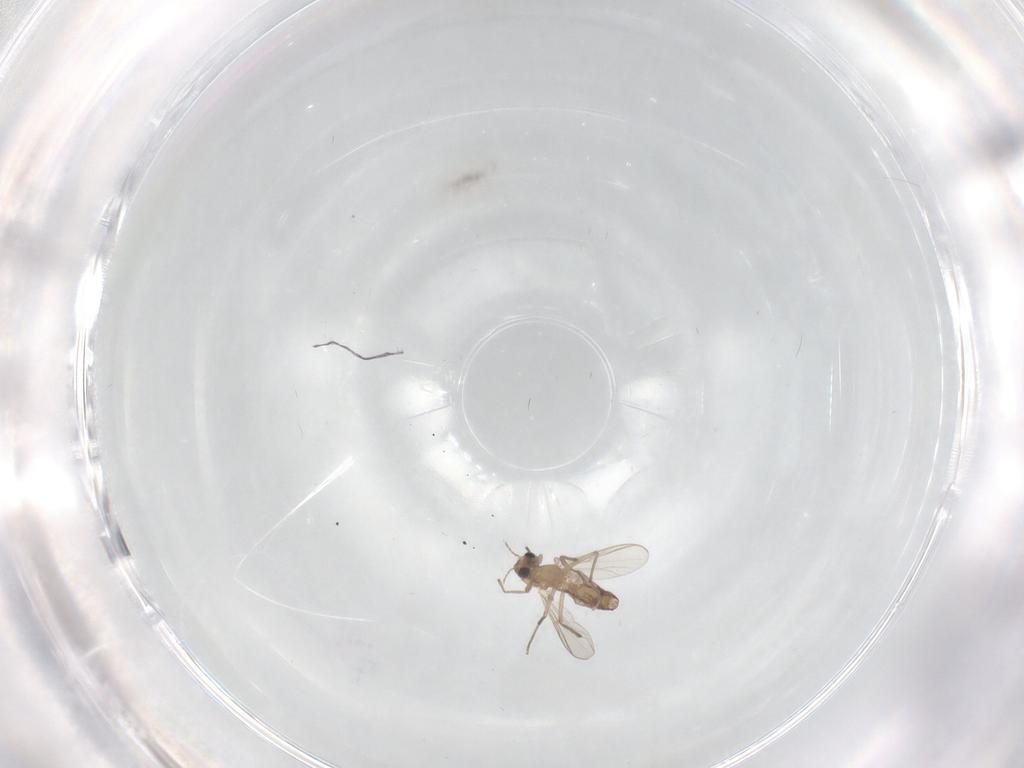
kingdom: Animalia
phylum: Arthropoda
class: Insecta
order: Diptera
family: Chironomidae
